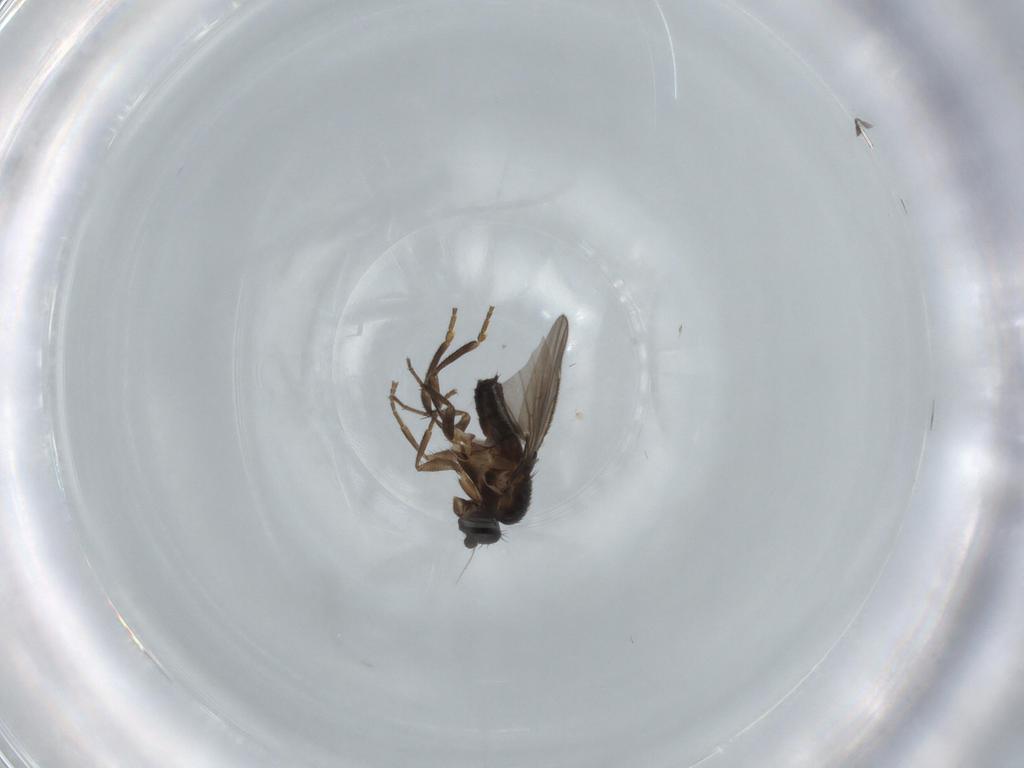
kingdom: Animalia
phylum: Arthropoda
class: Insecta
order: Diptera
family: Sphaeroceridae
